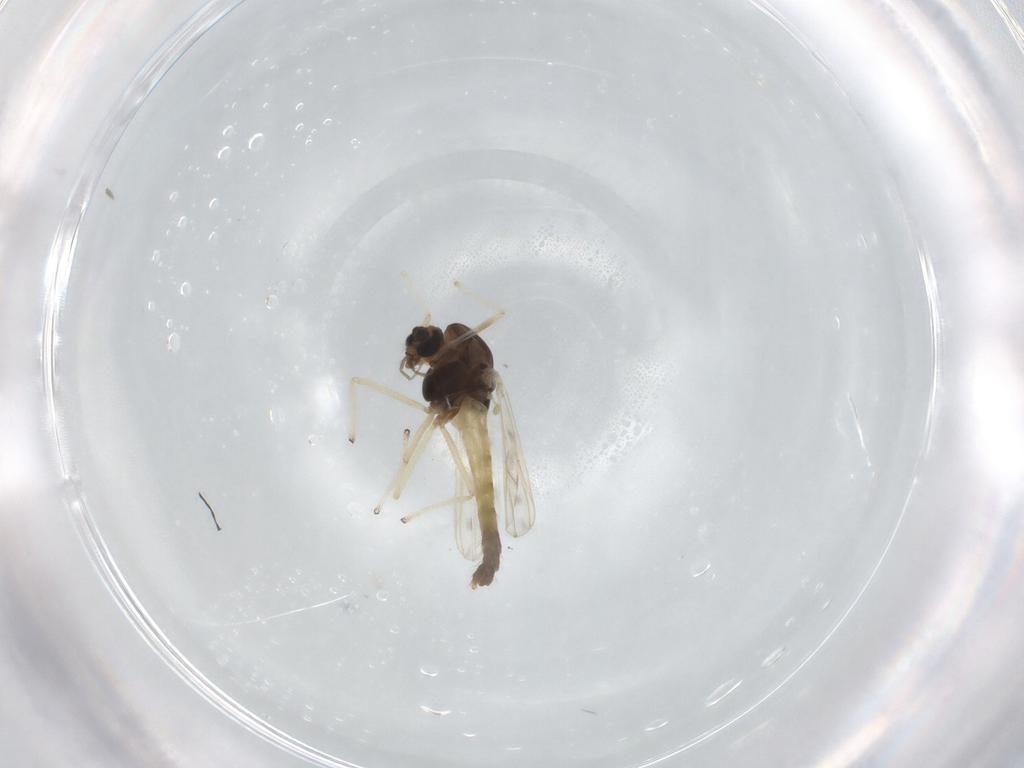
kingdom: Animalia
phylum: Arthropoda
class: Insecta
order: Diptera
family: Chironomidae
